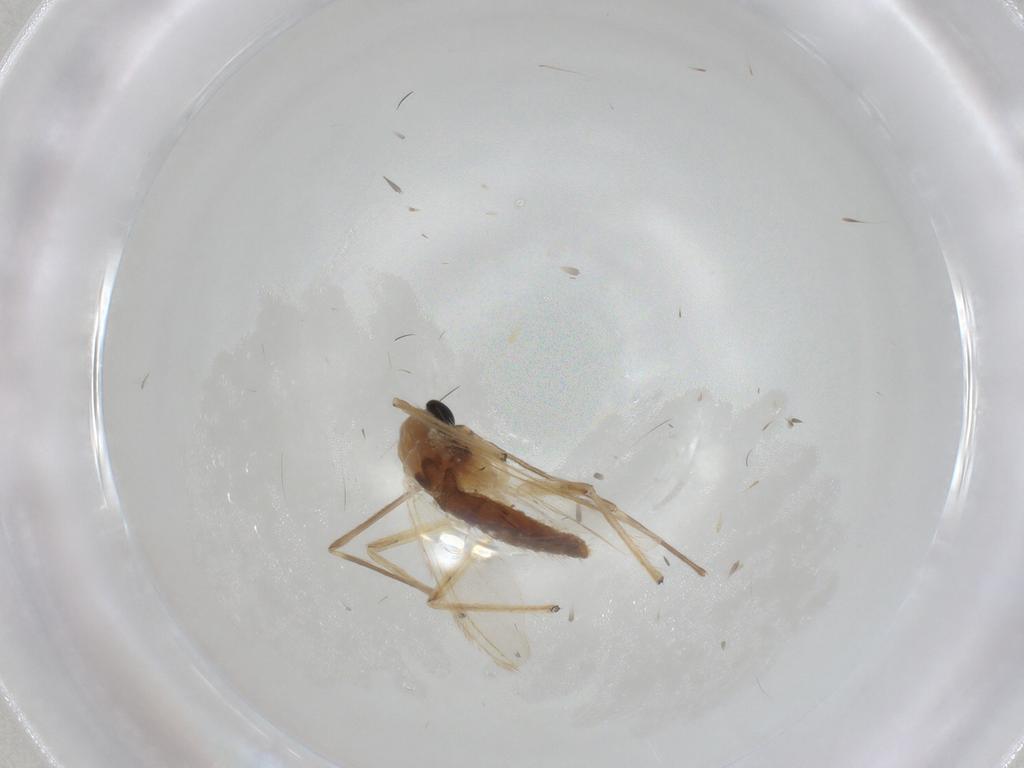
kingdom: Animalia
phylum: Arthropoda
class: Insecta
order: Diptera
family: Chironomidae
